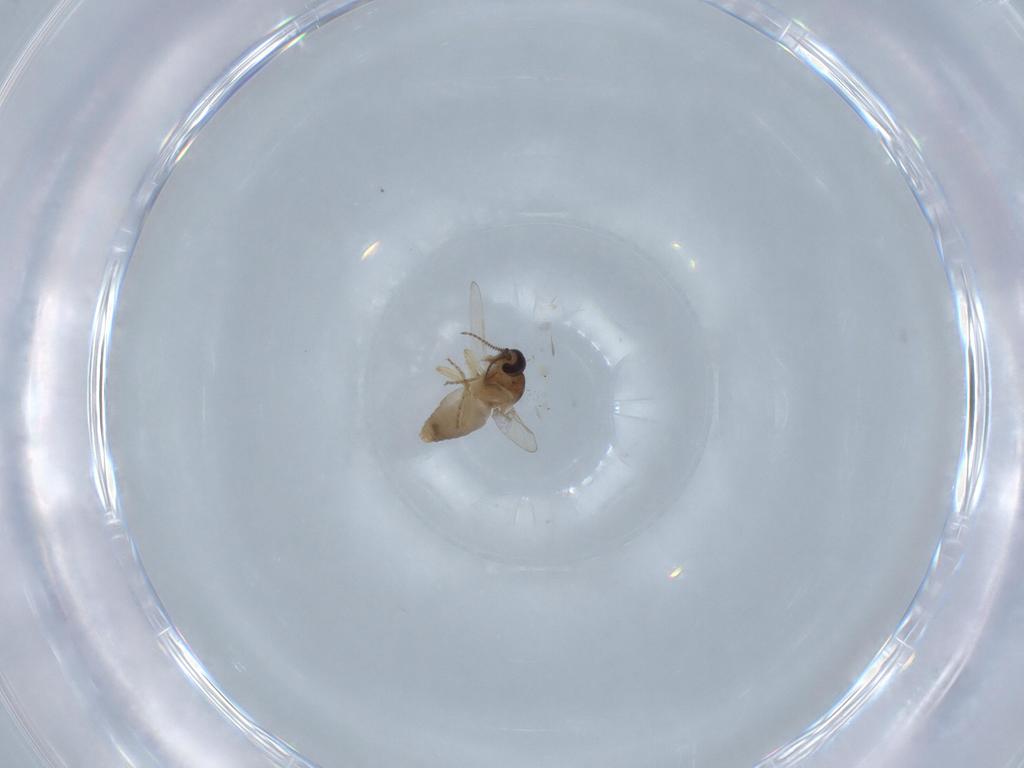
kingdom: Animalia
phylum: Arthropoda
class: Insecta
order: Diptera
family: Ceratopogonidae
